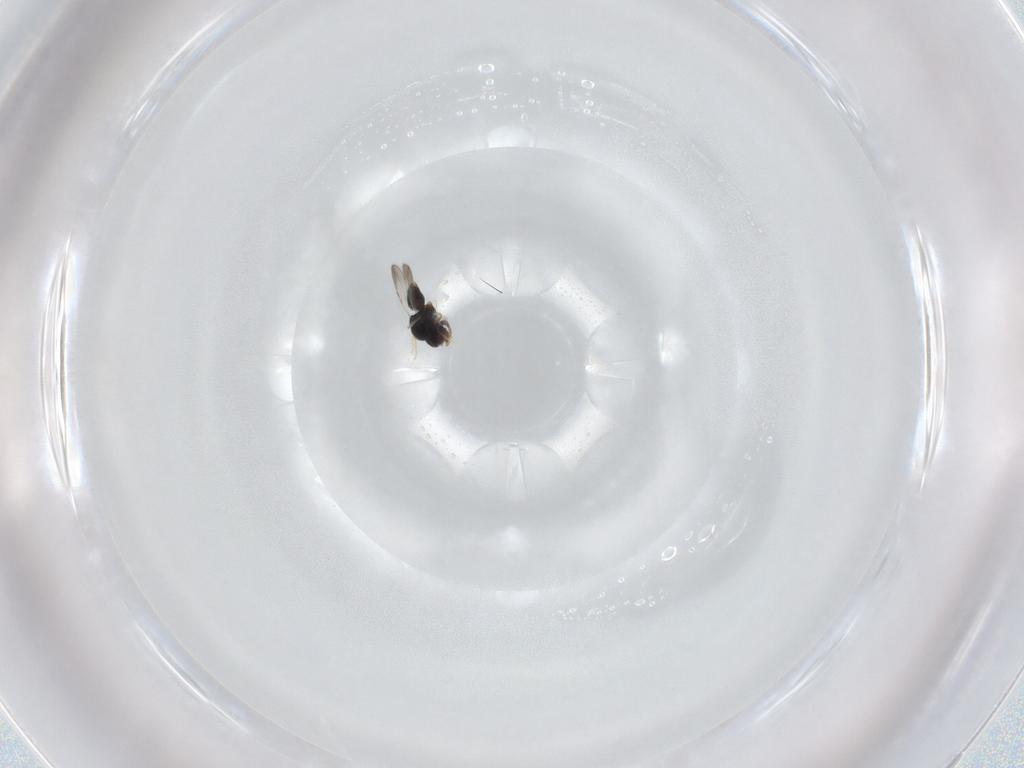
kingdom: Animalia
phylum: Arthropoda
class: Insecta
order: Hymenoptera
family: Ceraphronidae
